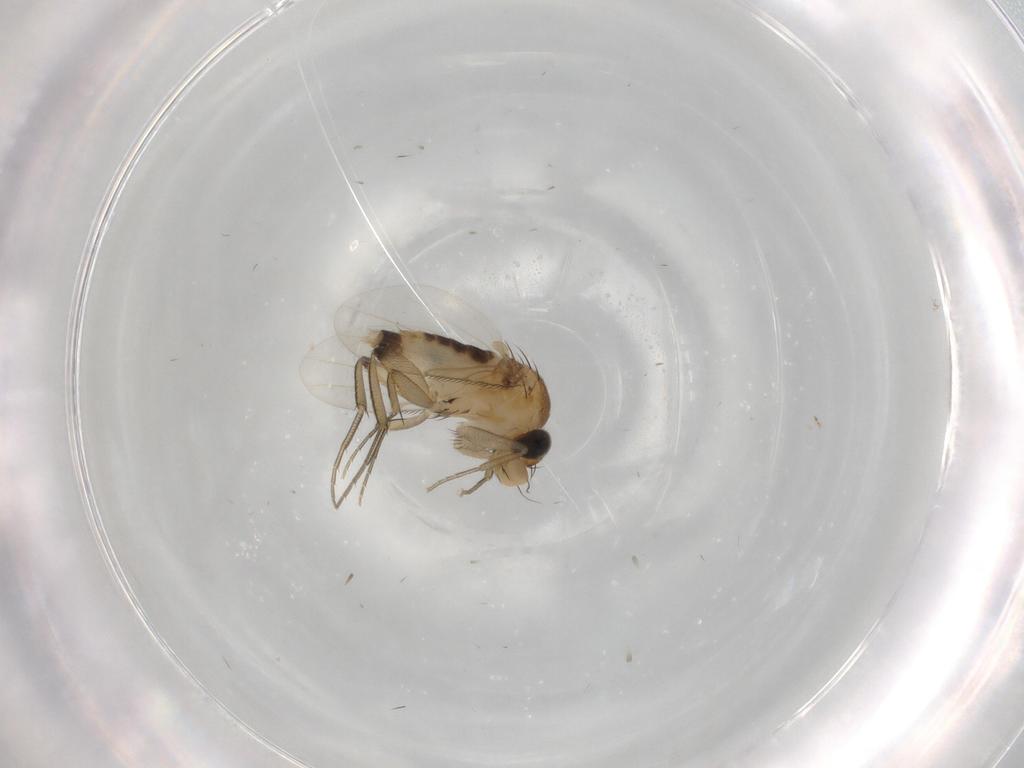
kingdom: Animalia
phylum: Arthropoda
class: Insecta
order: Diptera
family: Phoridae
